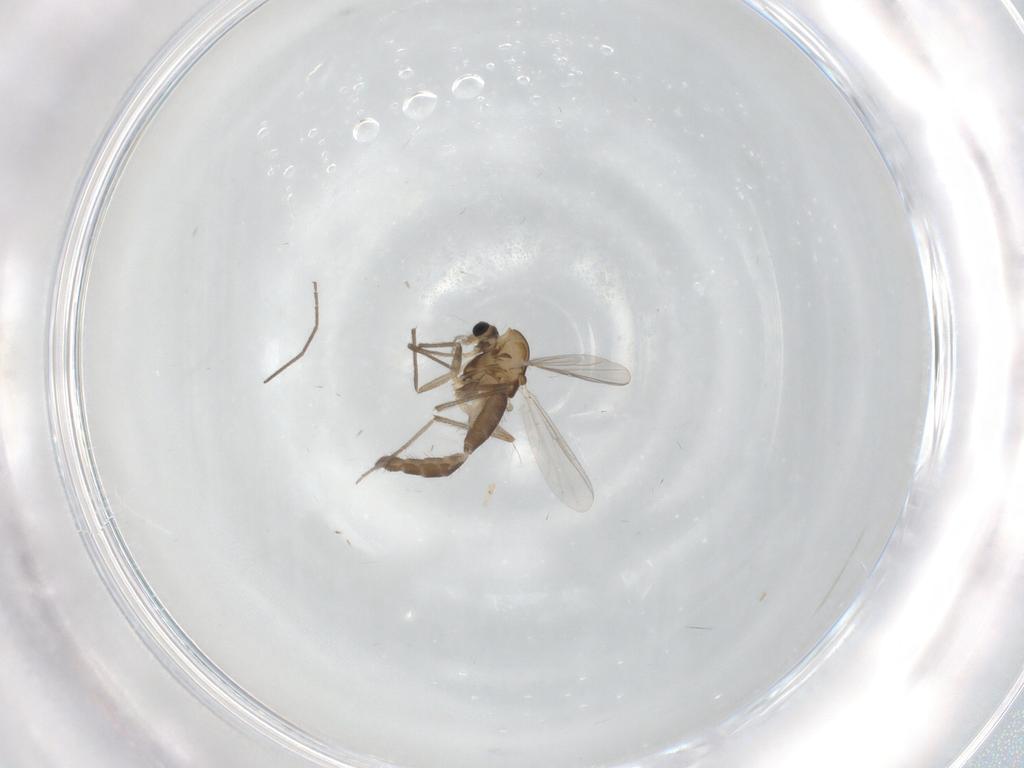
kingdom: Animalia
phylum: Arthropoda
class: Insecta
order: Diptera
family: Chironomidae
